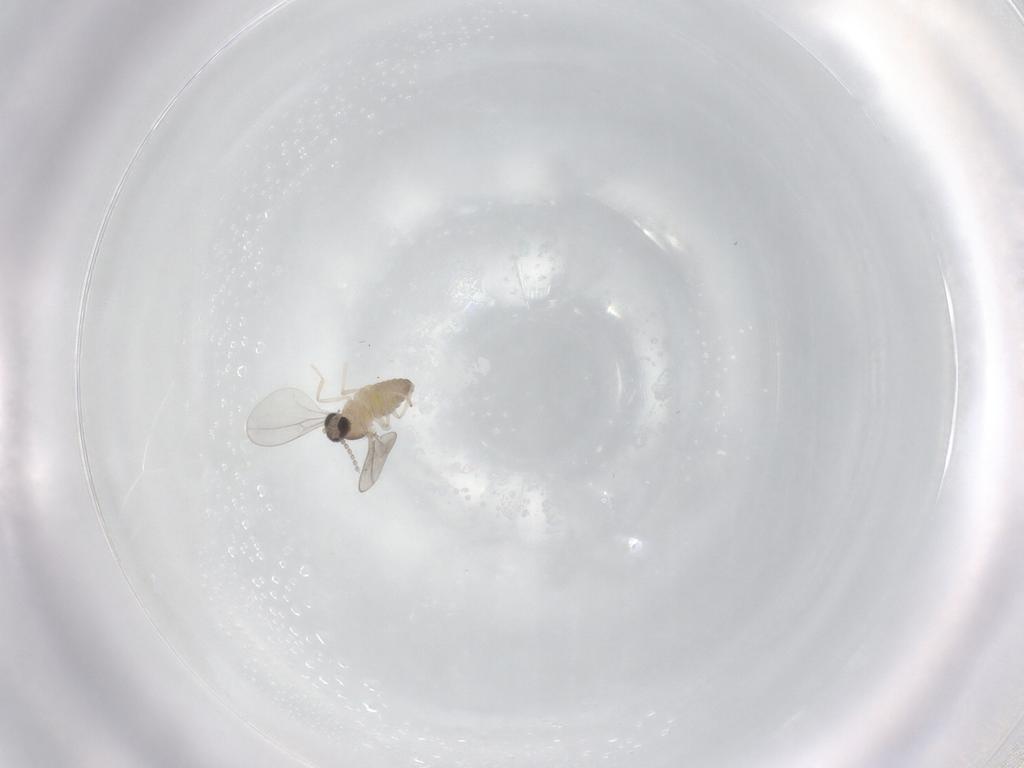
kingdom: Animalia
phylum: Arthropoda
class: Insecta
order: Diptera
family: Cecidomyiidae
